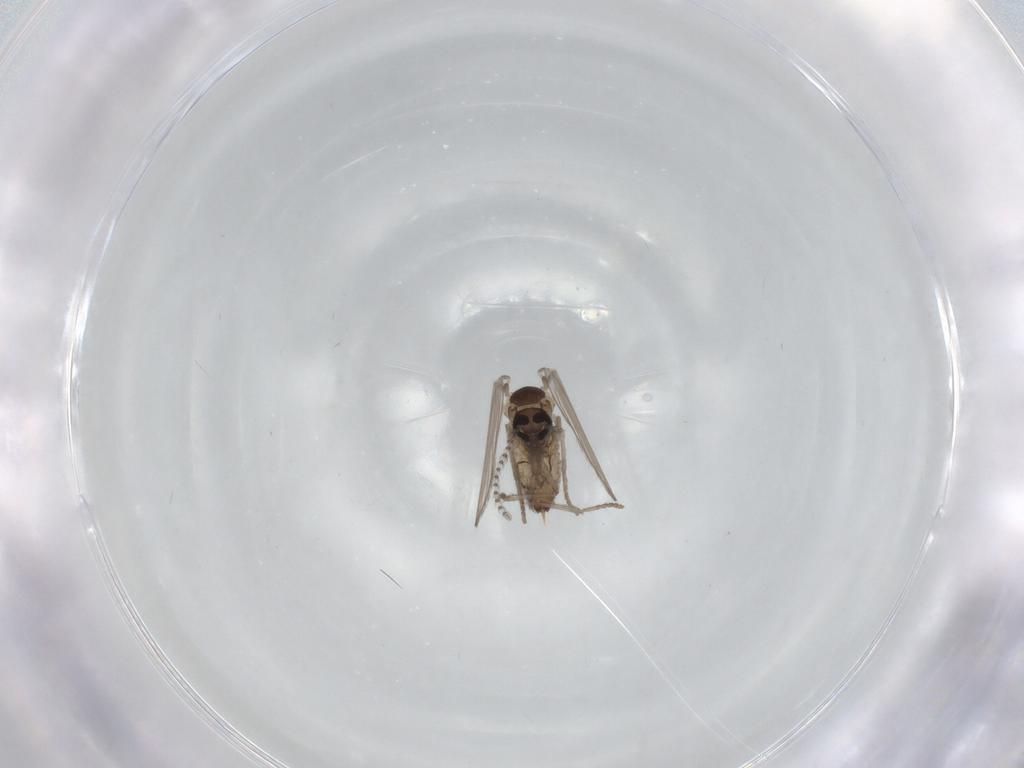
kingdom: Animalia
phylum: Arthropoda
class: Insecta
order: Diptera
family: Psychodidae
